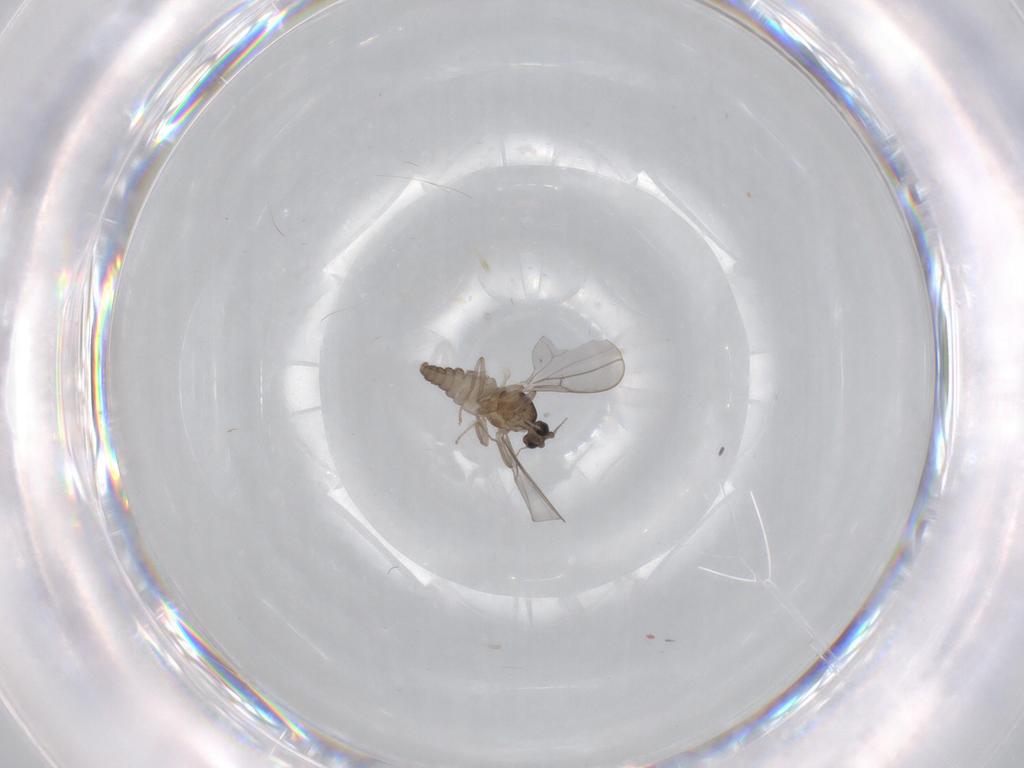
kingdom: Animalia
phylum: Arthropoda
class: Insecta
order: Diptera
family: Cecidomyiidae
